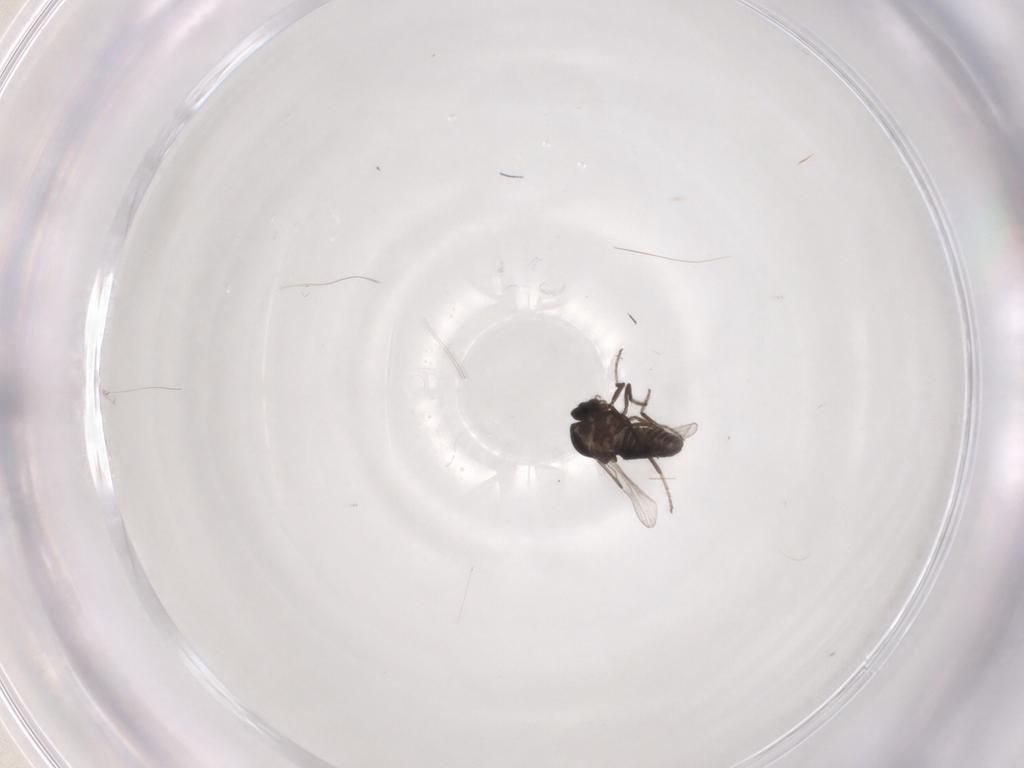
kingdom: Animalia
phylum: Arthropoda
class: Insecta
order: Diptera
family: Ceratopogonidae
